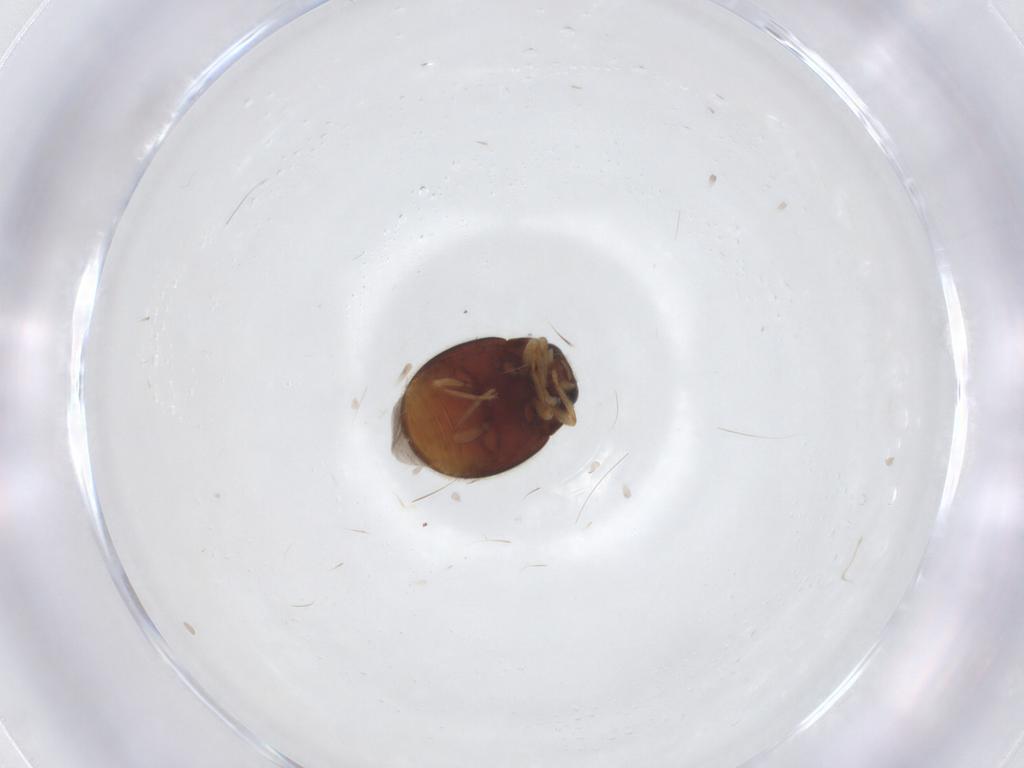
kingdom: Animalia
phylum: Arthropoda
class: Insecta
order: Coleoptera
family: Coccinellidae
